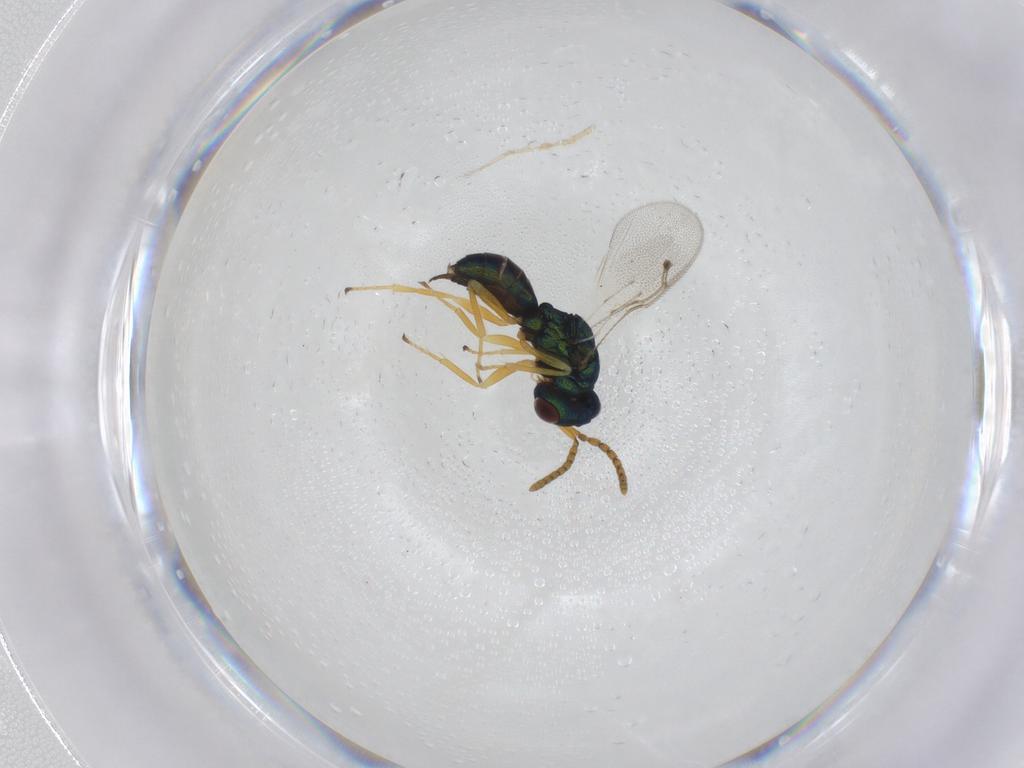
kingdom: Animalia
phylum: Arthropoda
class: Insecta
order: Hymenoptera
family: Pteromalidae
